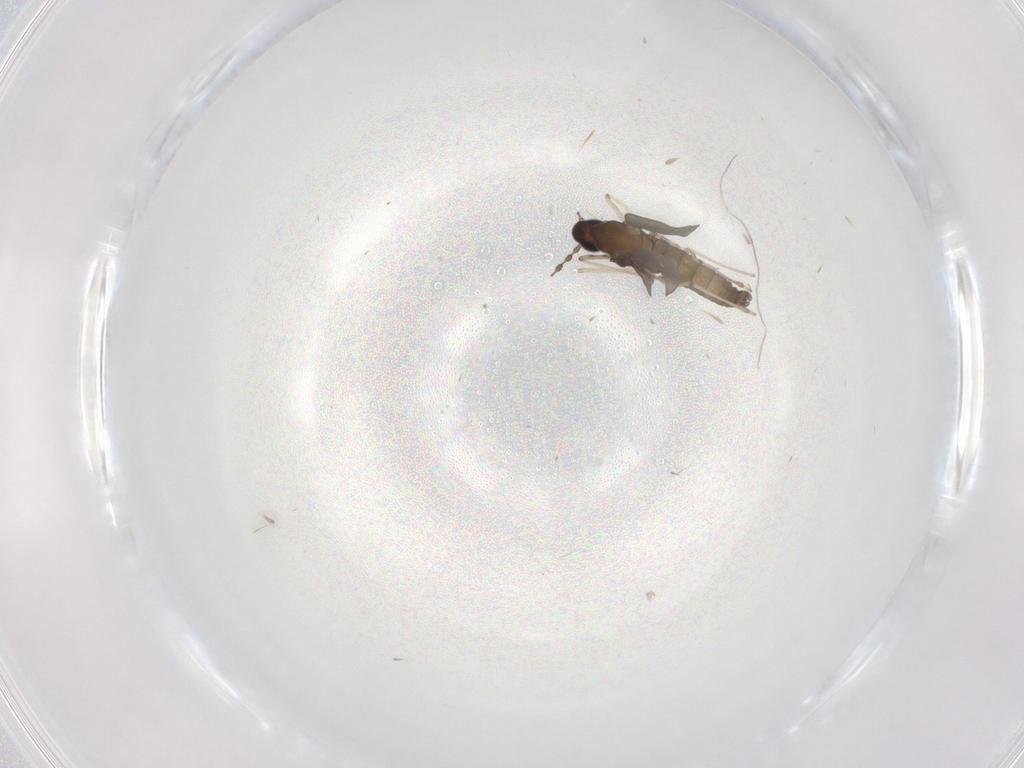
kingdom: Animalia
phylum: Arthropoda
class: Insecta
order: Diptera
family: Cecidomyiidae
